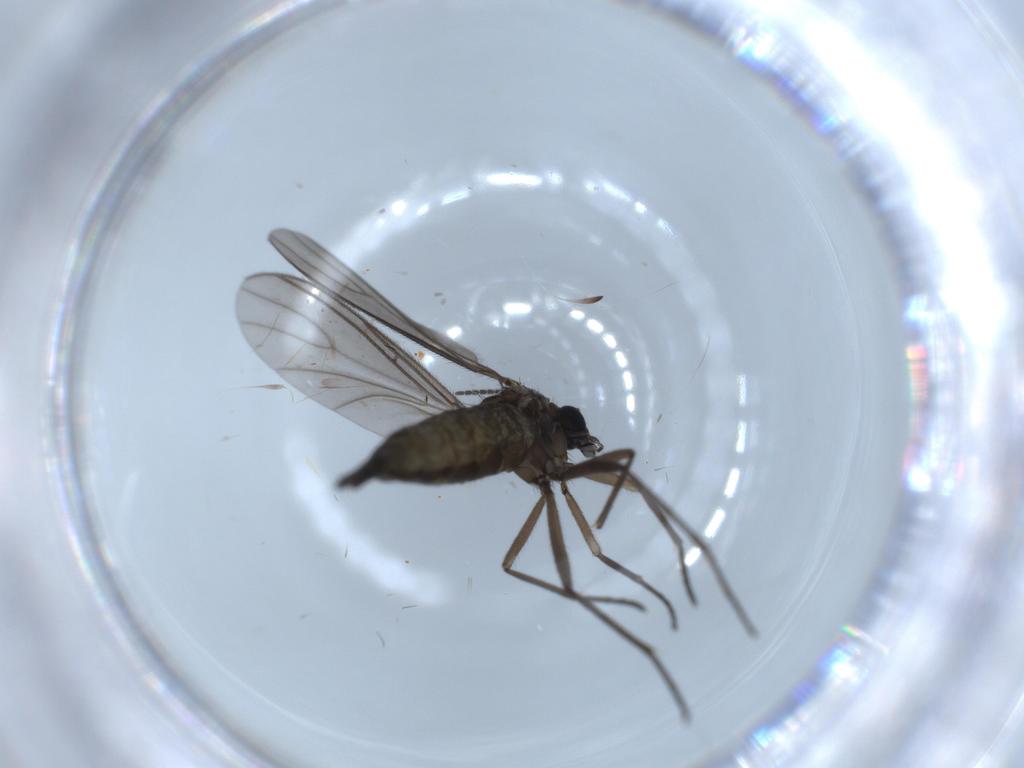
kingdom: Animalia
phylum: Arthropoda
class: Insecta
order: Diptera
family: Sciaridae
